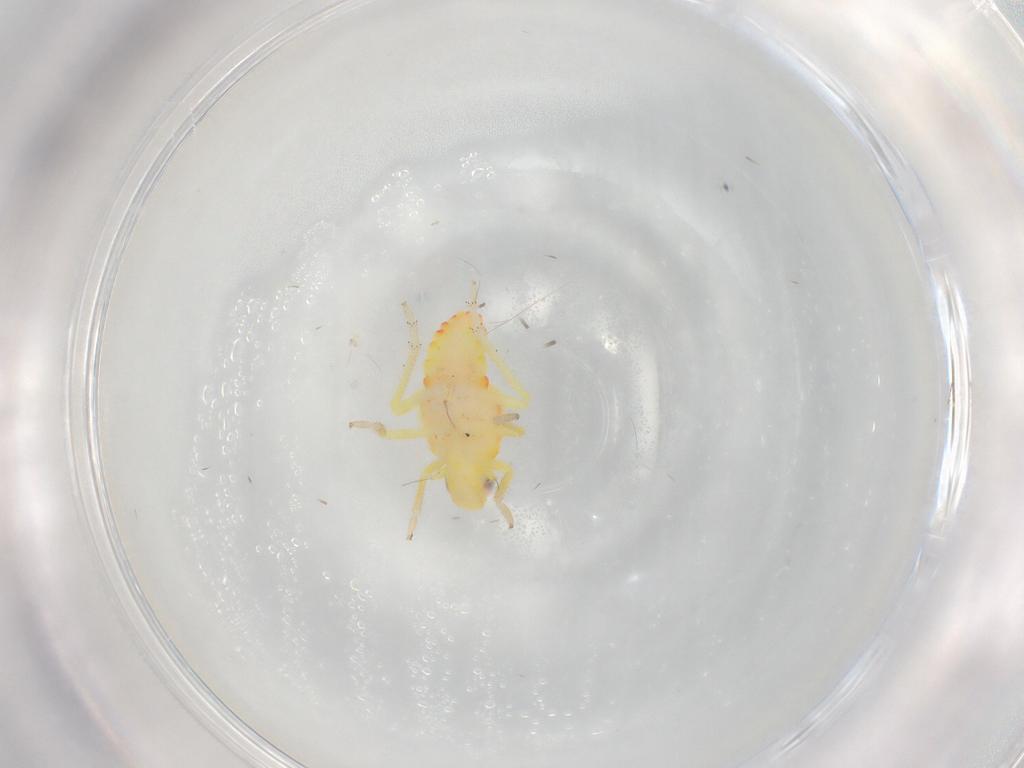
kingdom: Animalia
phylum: Arthropoda
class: Insecta
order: Hemiptera
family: Tropiduchidae
